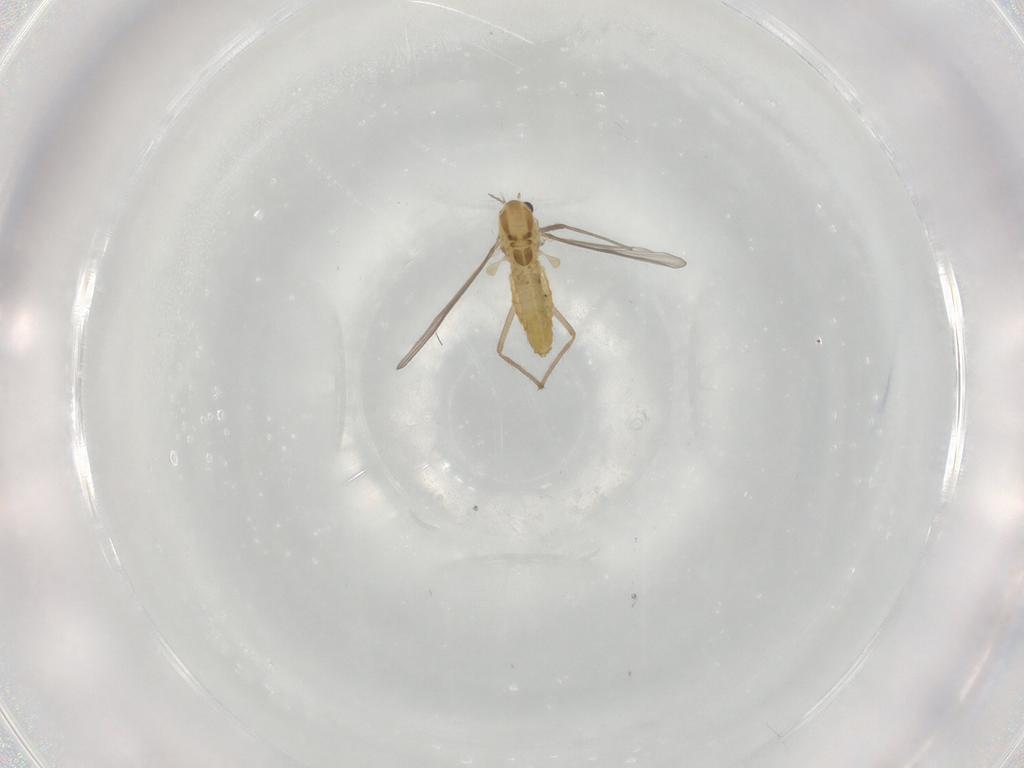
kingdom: Animalia
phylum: Arthropoda
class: Insecta
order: Diptera
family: Chironomidae
